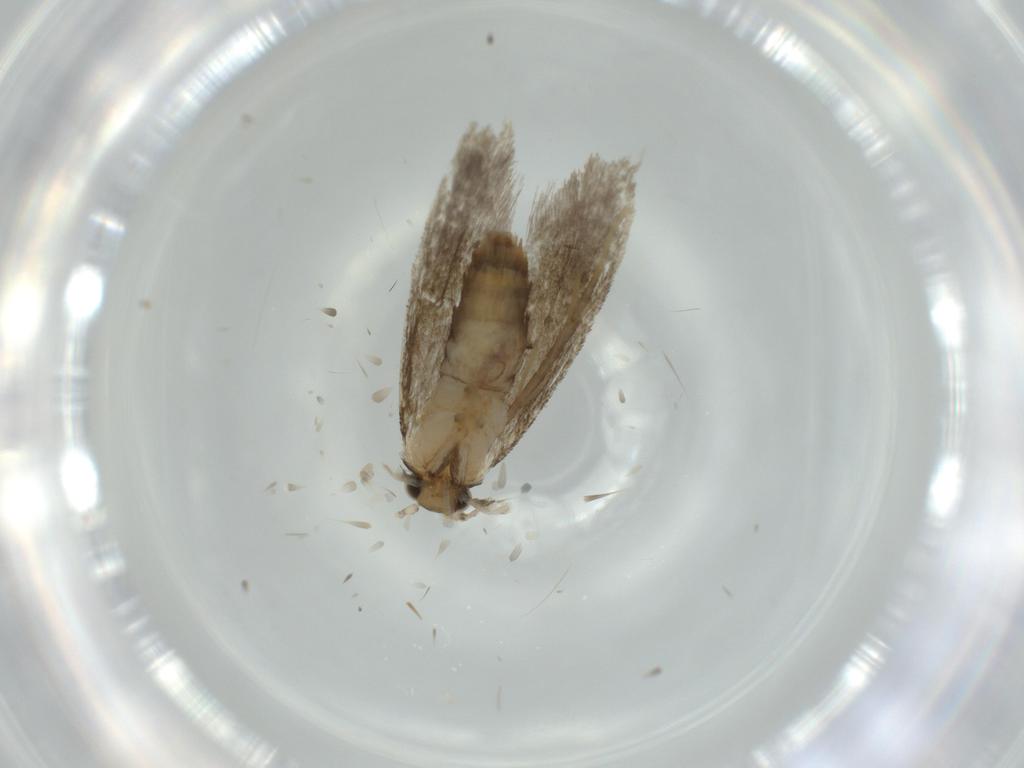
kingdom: Animalia
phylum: Arthropoda
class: Insecta
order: Lepidoptera
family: Tineidae
